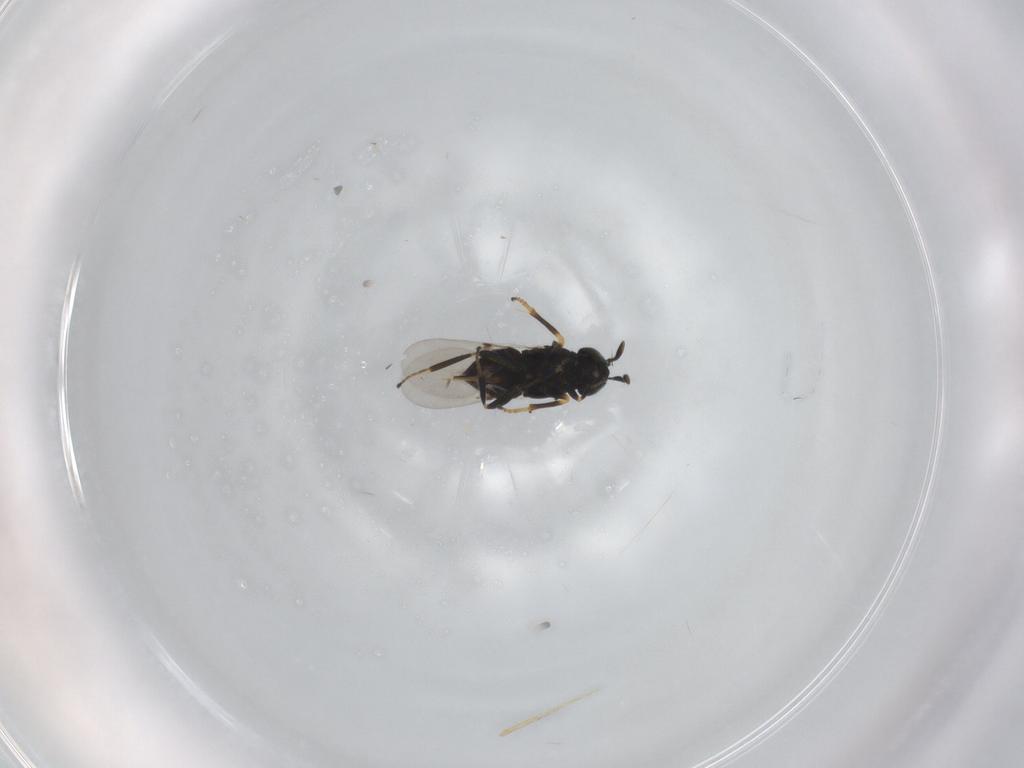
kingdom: Animalia
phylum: Arthropoda
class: Insecta
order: Hymenoptera
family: Encyrtidae
